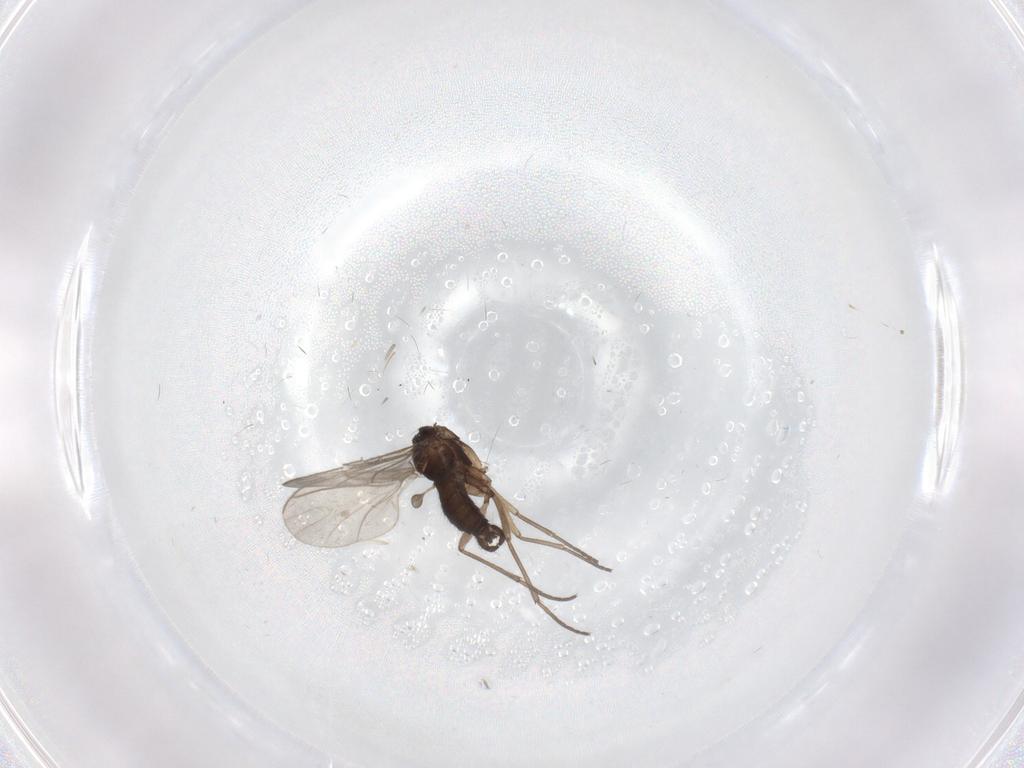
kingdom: Animalia
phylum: Arthropoda
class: Insecta
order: Diptera
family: Sciaridae
